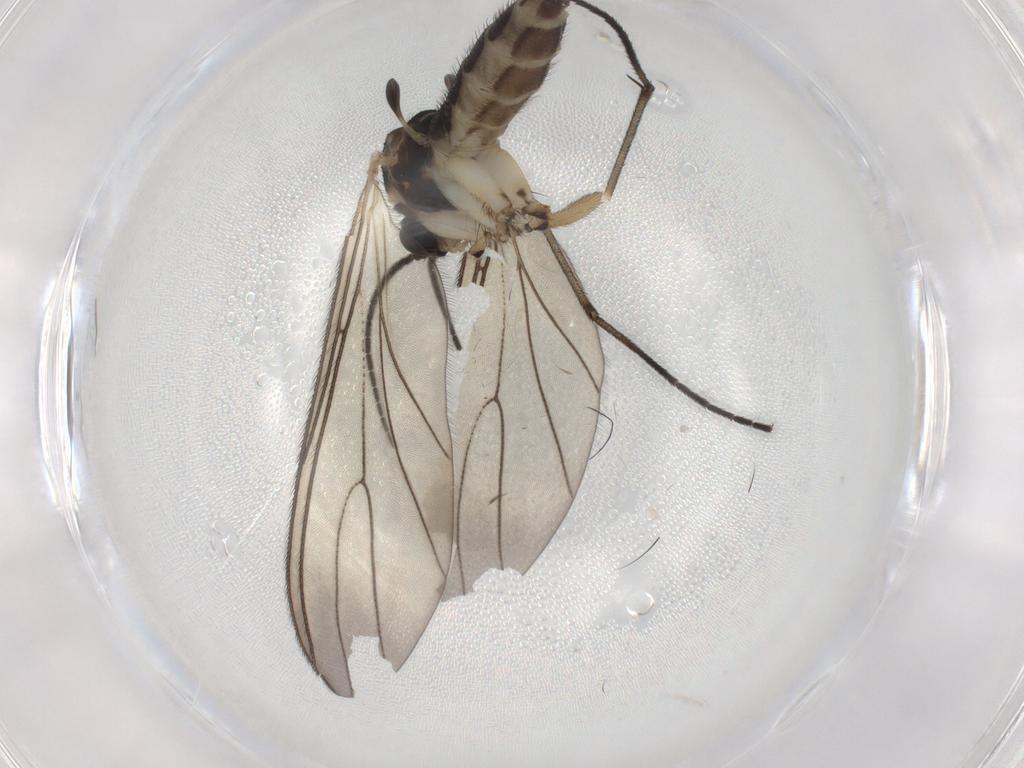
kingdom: Animalia
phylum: Arthropoda
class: Insecta
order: Diptera
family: Sciaridae
